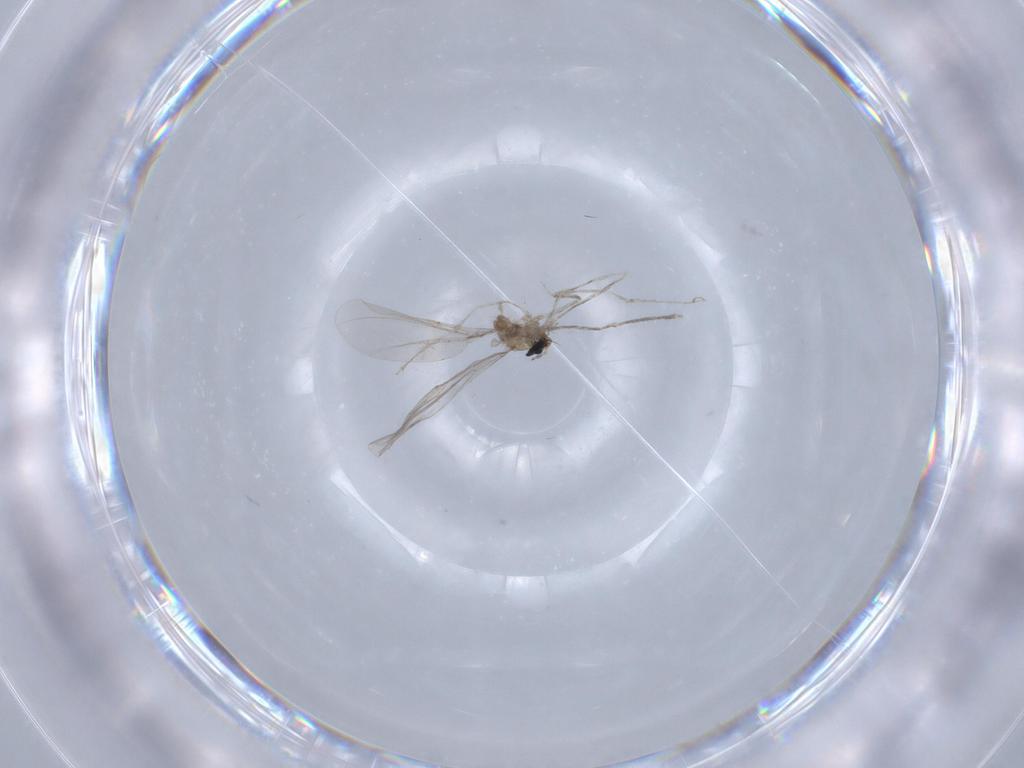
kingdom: Animalia
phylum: Arthropoda
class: Insecta
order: Diptera
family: Cecidomyiidae
